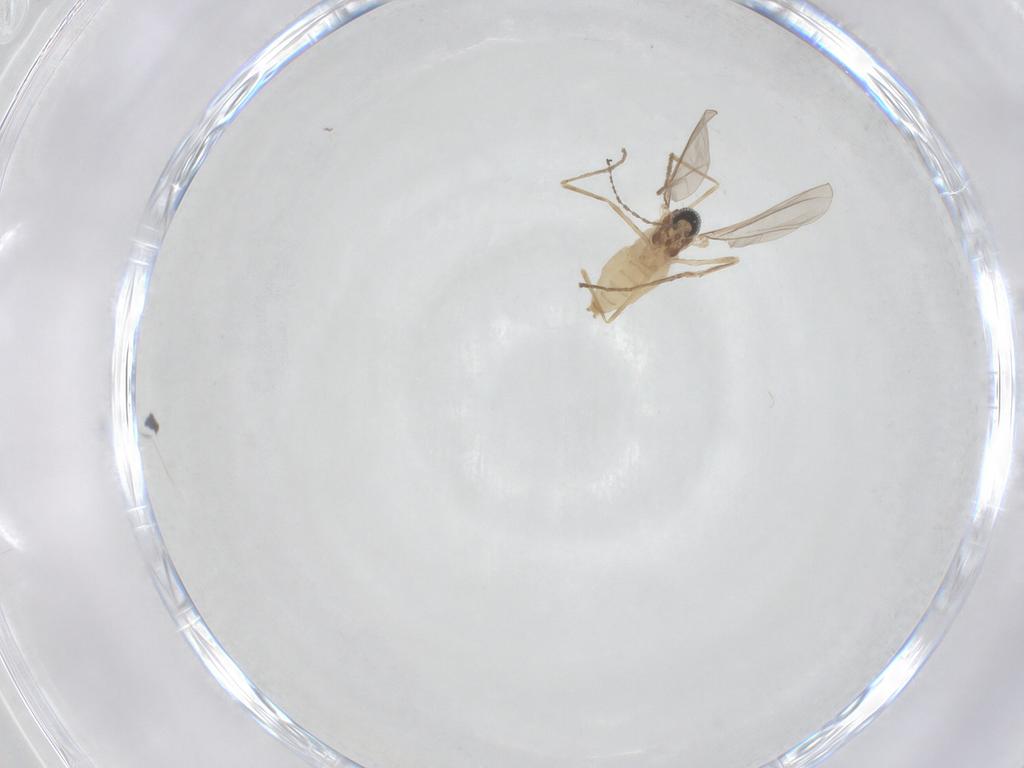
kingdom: Animalia
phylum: Arthropoda
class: Insecta
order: Diptera
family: Cecidomyiidae
